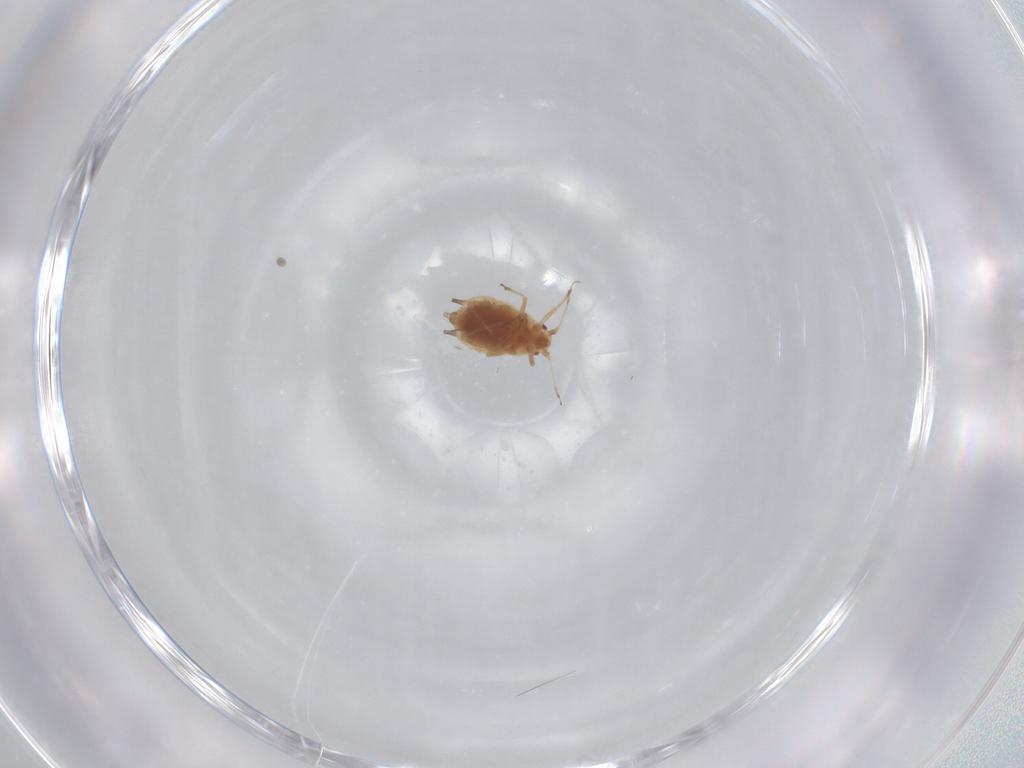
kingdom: Animalia
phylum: Arthropoda
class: Insecta
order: Hemiptera
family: Aphididae
